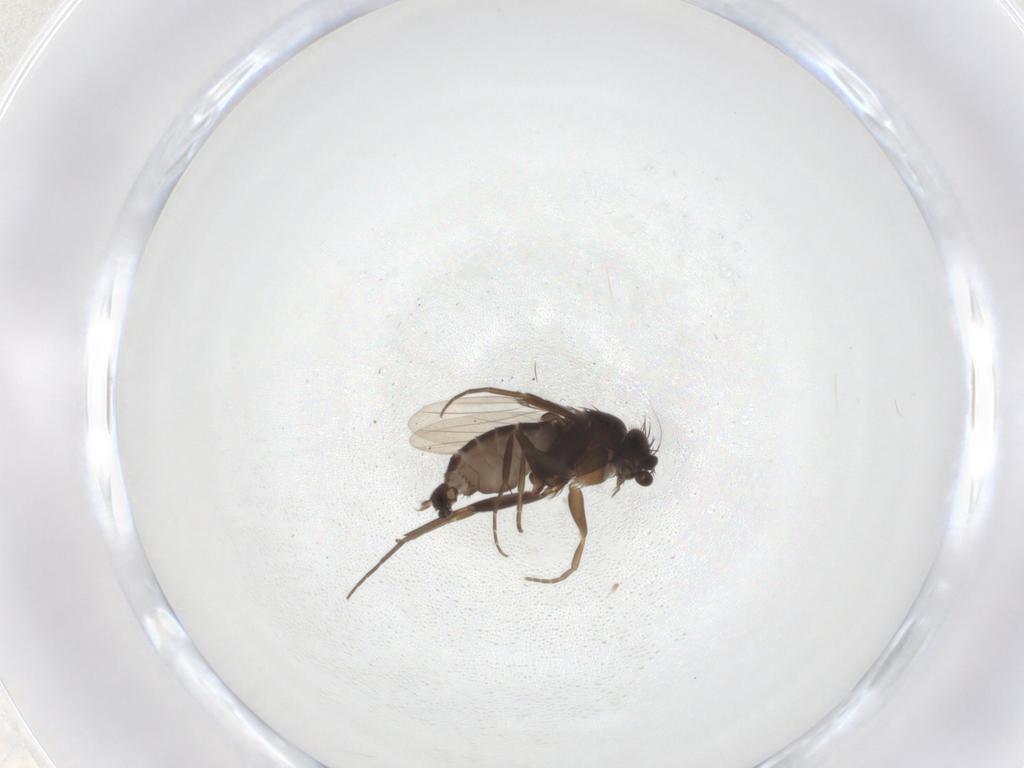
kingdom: Animalia
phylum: Arthropoda
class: Insecta
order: Diptera
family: Phoridae
